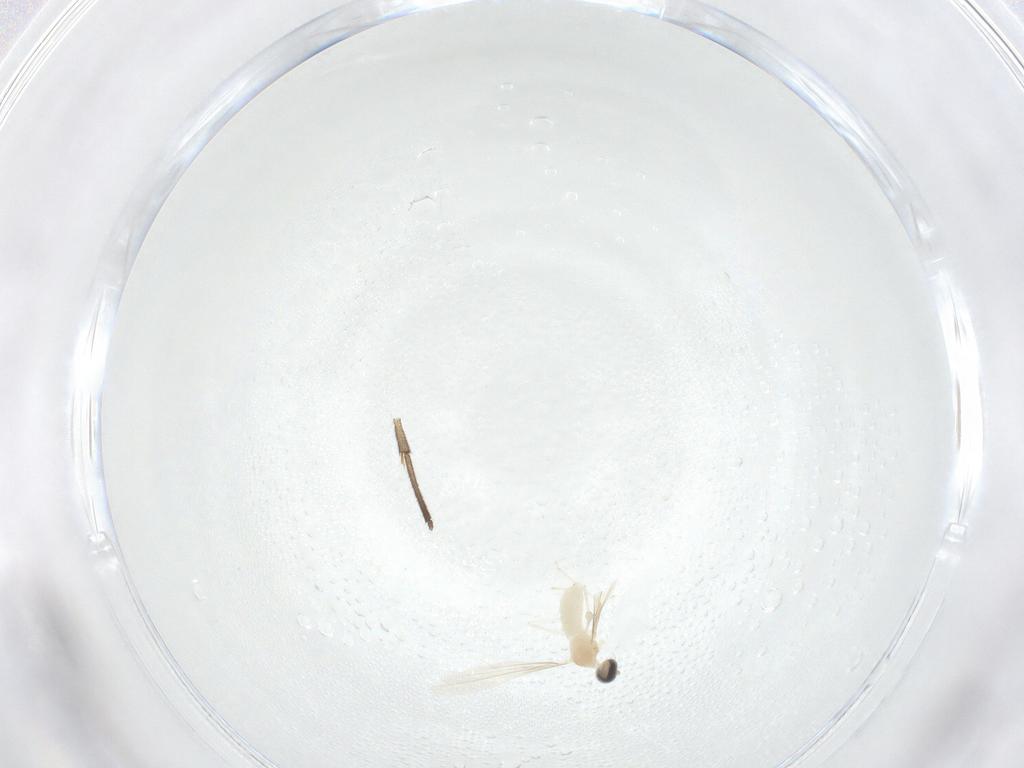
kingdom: Animalia
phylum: Arthropoda
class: Insecta
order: Diptera
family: Cecidomyiidae
